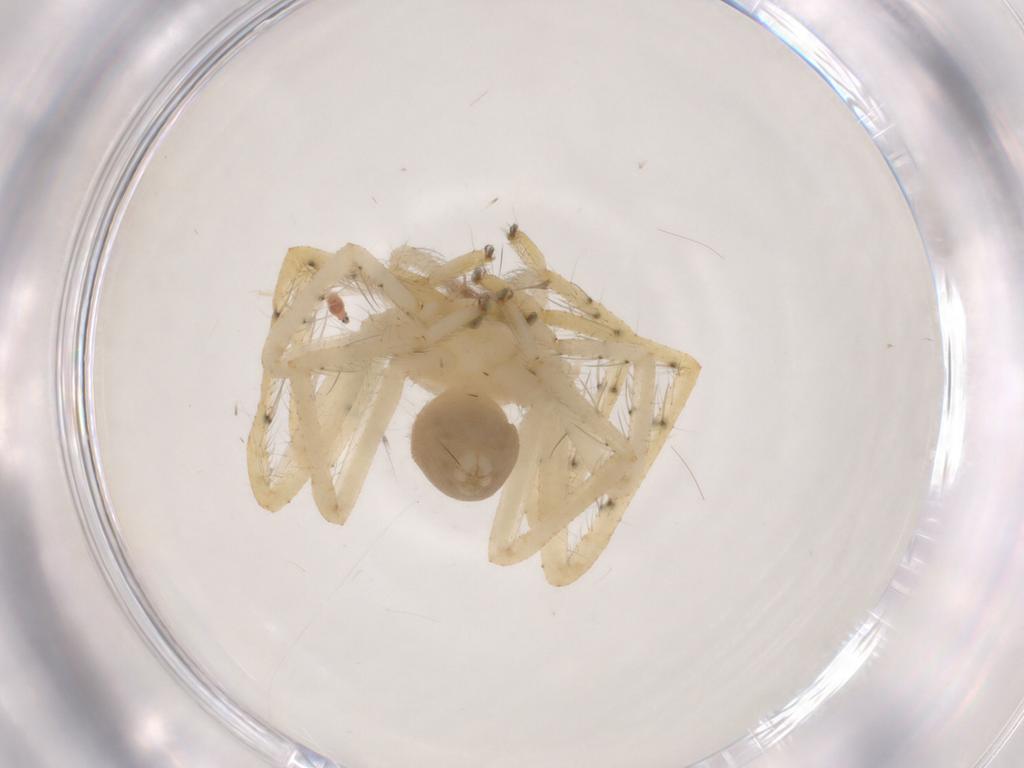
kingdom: Animalia
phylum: Arthropoda
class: Arachnida
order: Araneae
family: Sparassidae
